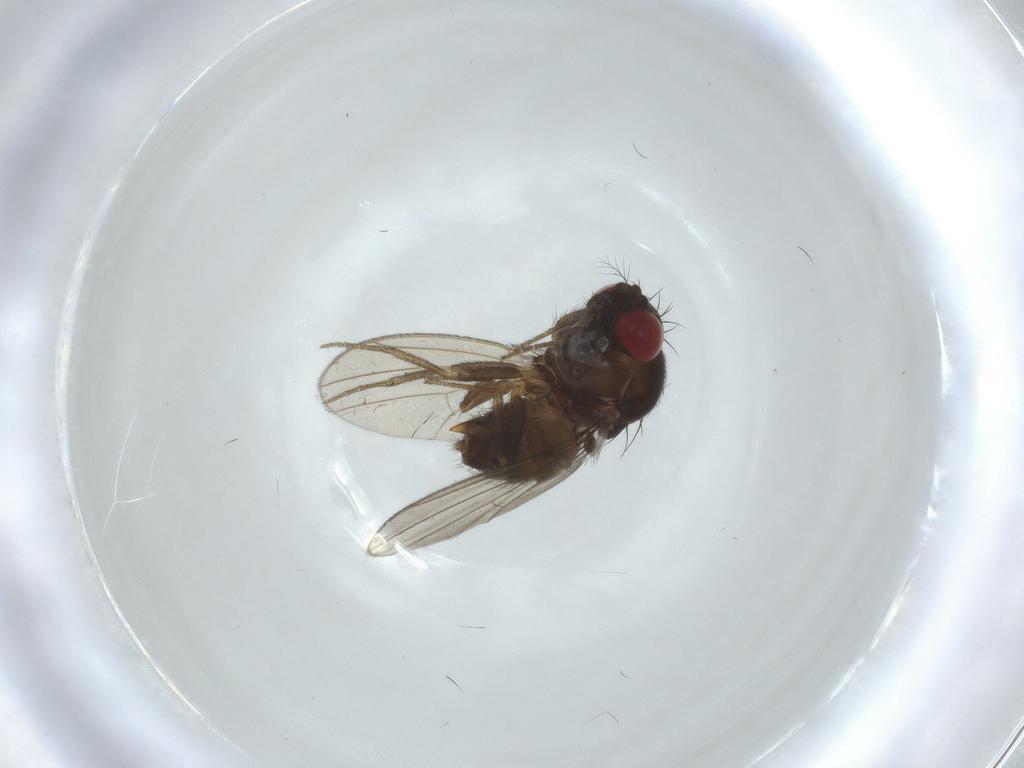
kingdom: Animalia
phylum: Arthropoda
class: Insecta
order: Diptera
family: Drosophilidae
